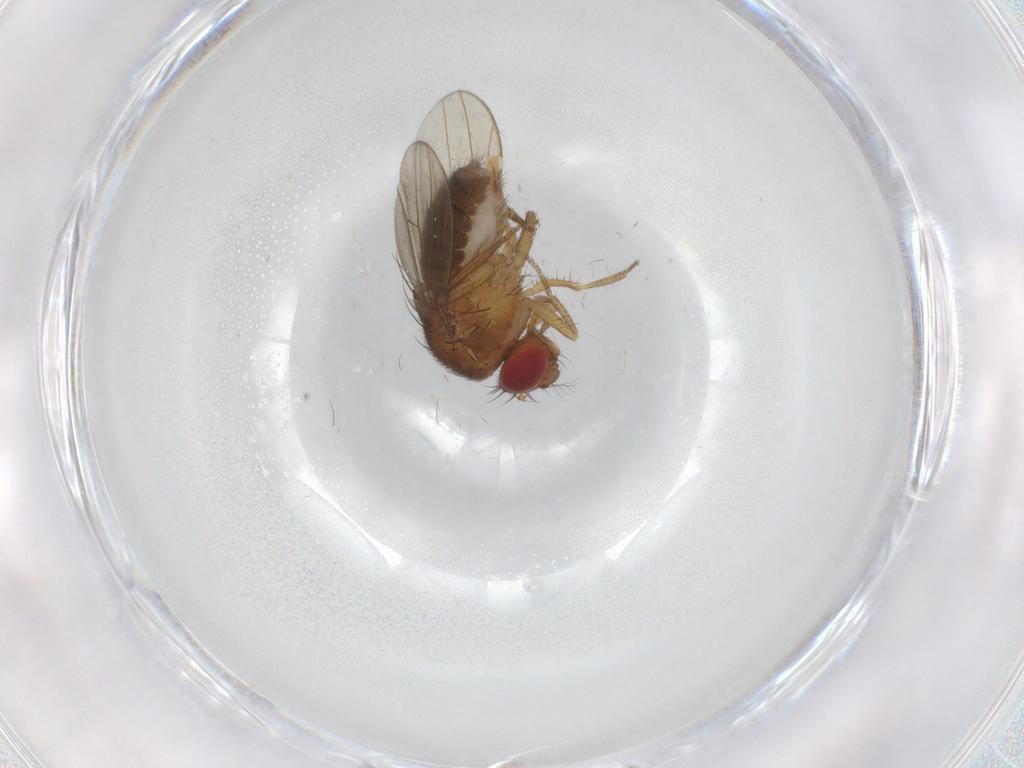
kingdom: Animalia
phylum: Arthropoda
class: Insecta
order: Diptera
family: Drosophilidae
